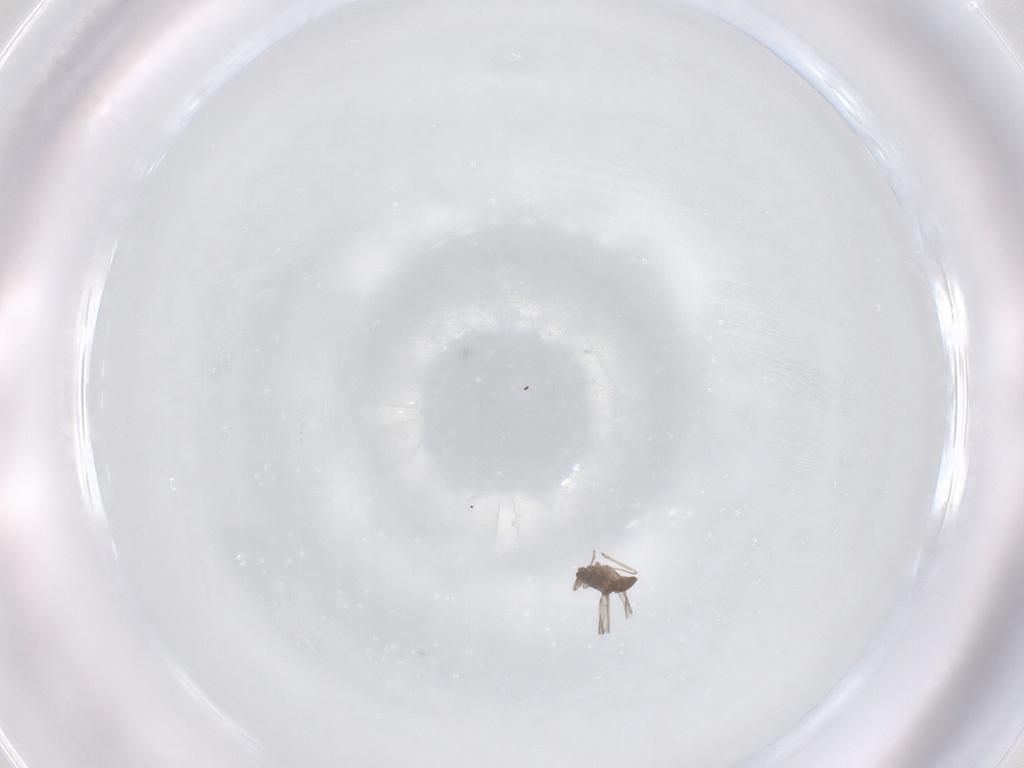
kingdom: Animalia
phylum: Arthropoda
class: Insecta
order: Diptera
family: Cecidomyiidae
